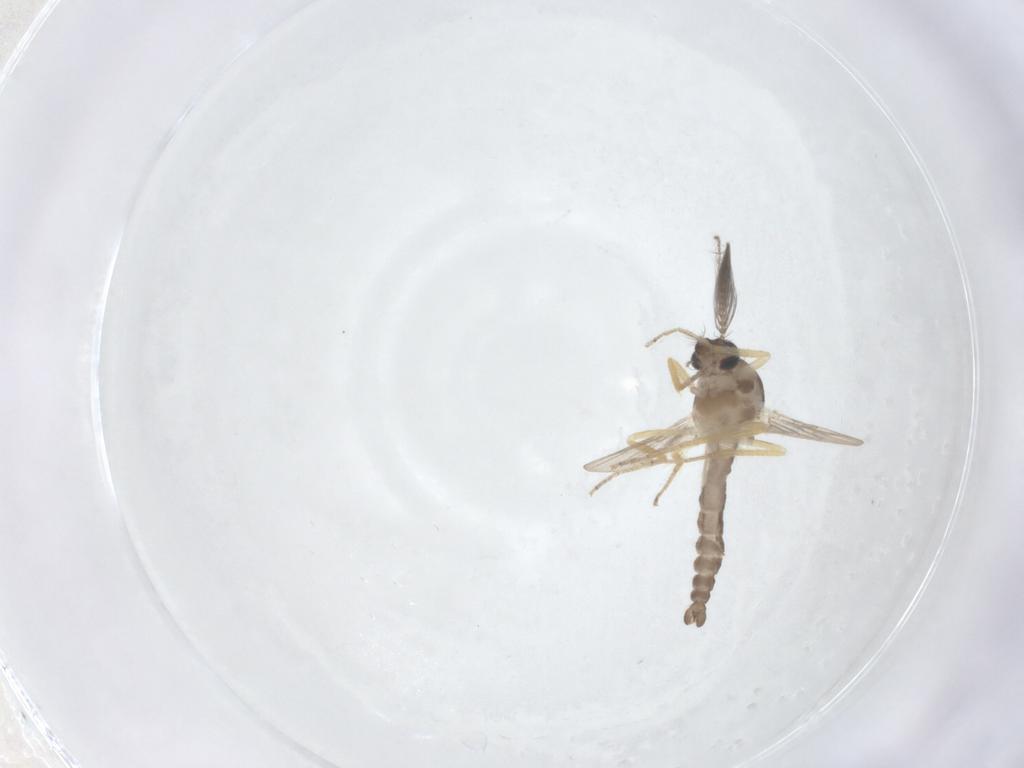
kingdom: Animalia
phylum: Arthropoda
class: Insecta
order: Diptera
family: Ceratopogonidae
